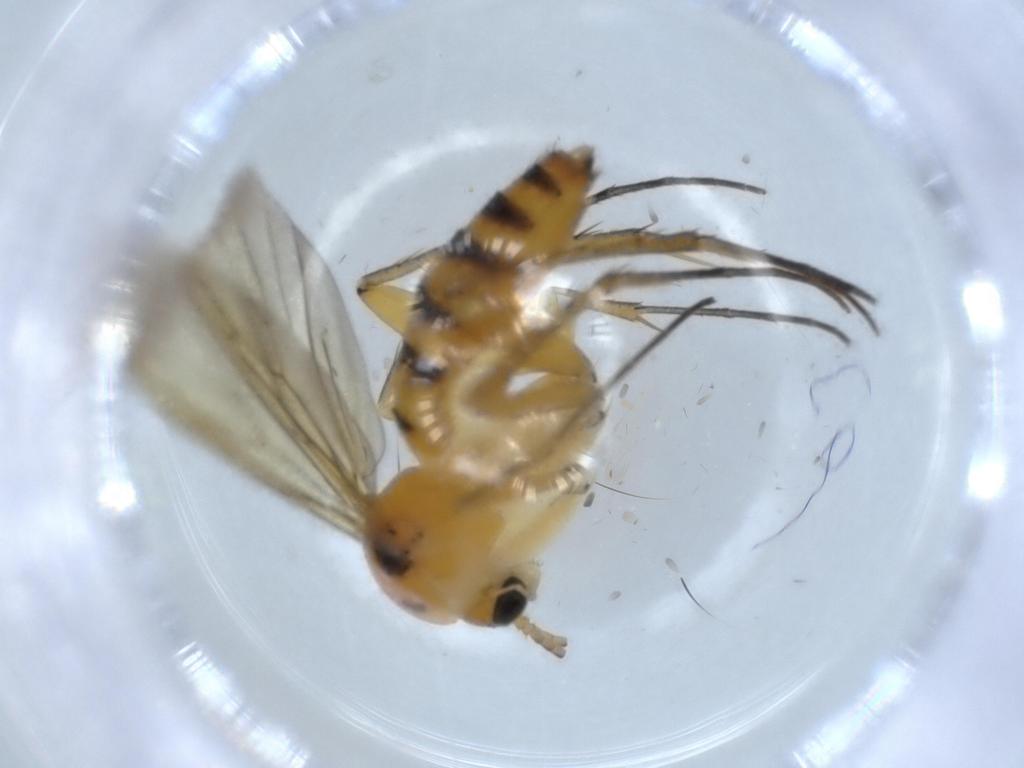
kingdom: Animalia
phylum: Arthropoda
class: Insecta
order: Diptera
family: Mycetophilidae
